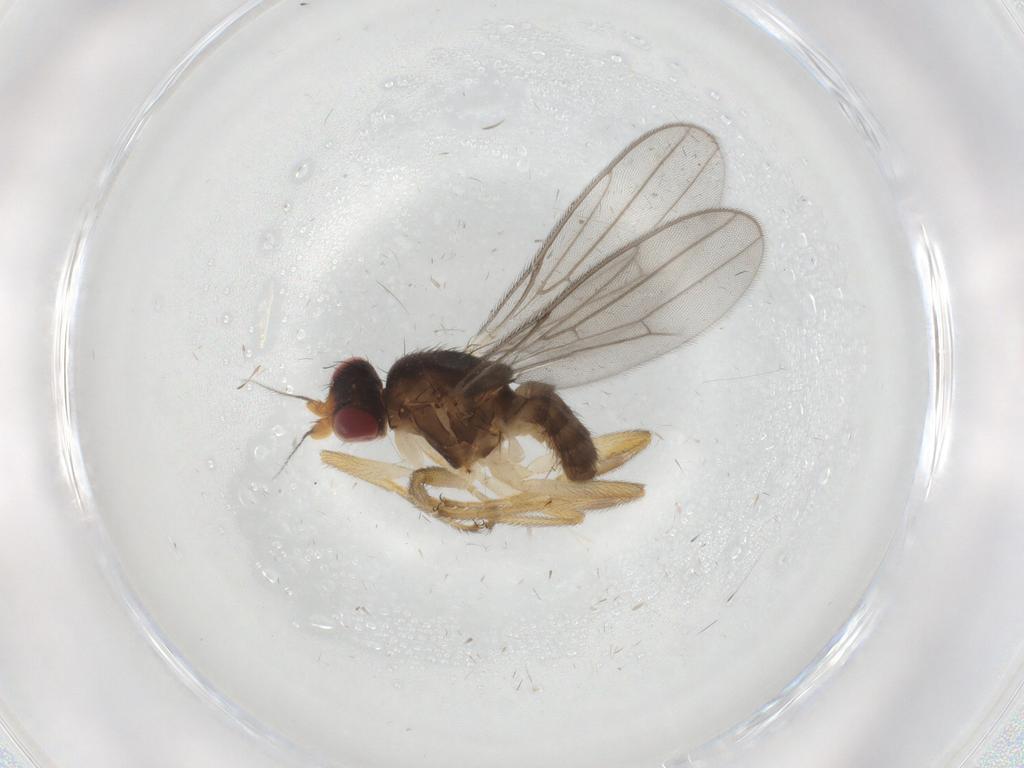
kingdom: Animalia
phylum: Arthropoda
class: Insecta
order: Diptera
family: Chloropidae
